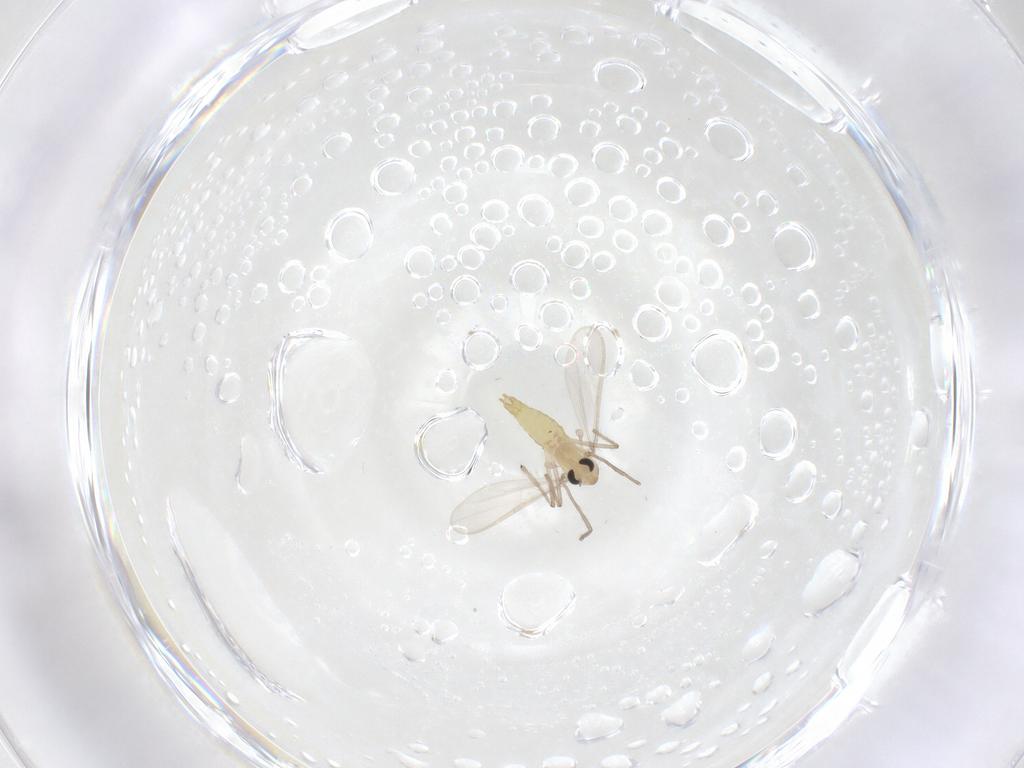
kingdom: Animalia
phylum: Arthropoda
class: Insecta
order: Diptera
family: Chironomidae
